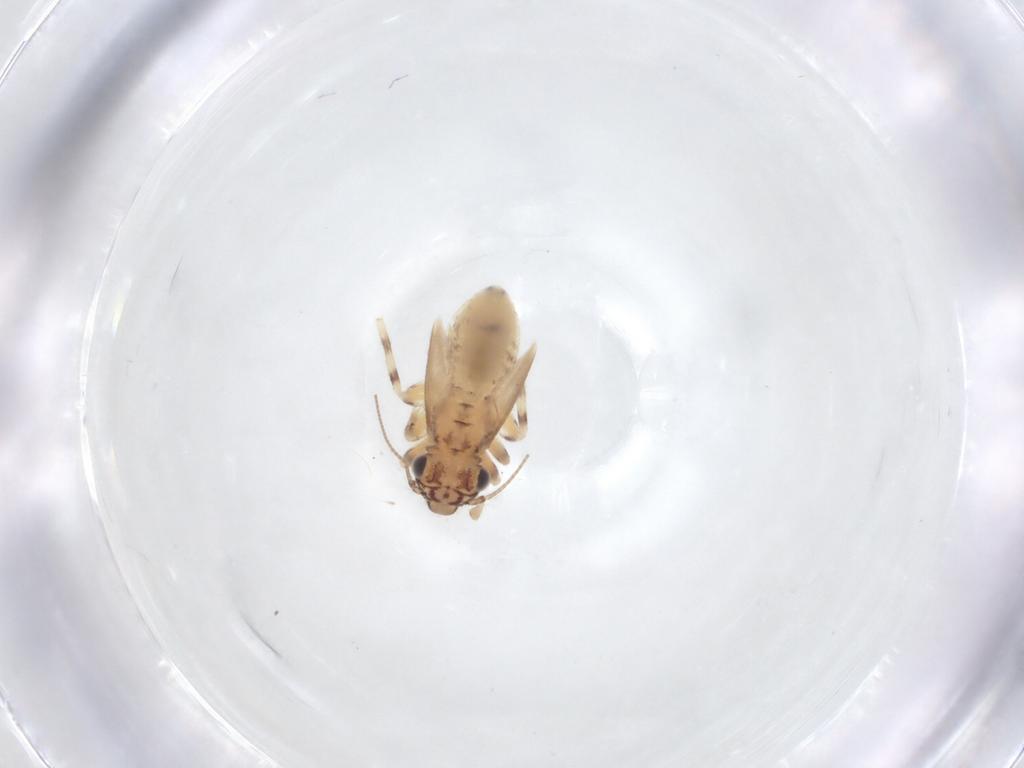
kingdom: Animalia
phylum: Arthropoda
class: Insecta
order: Psocodea
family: Lepidopsocidae
